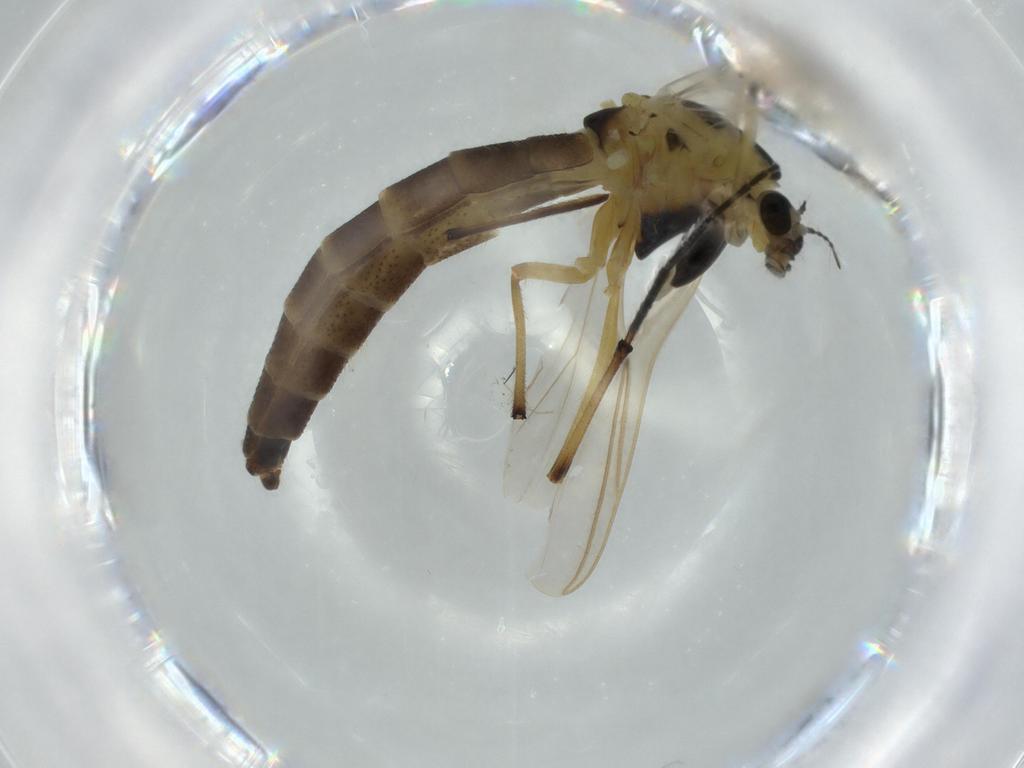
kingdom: Animalia
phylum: Arthropoda
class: Insecta
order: Diptera
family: Chironomidae
